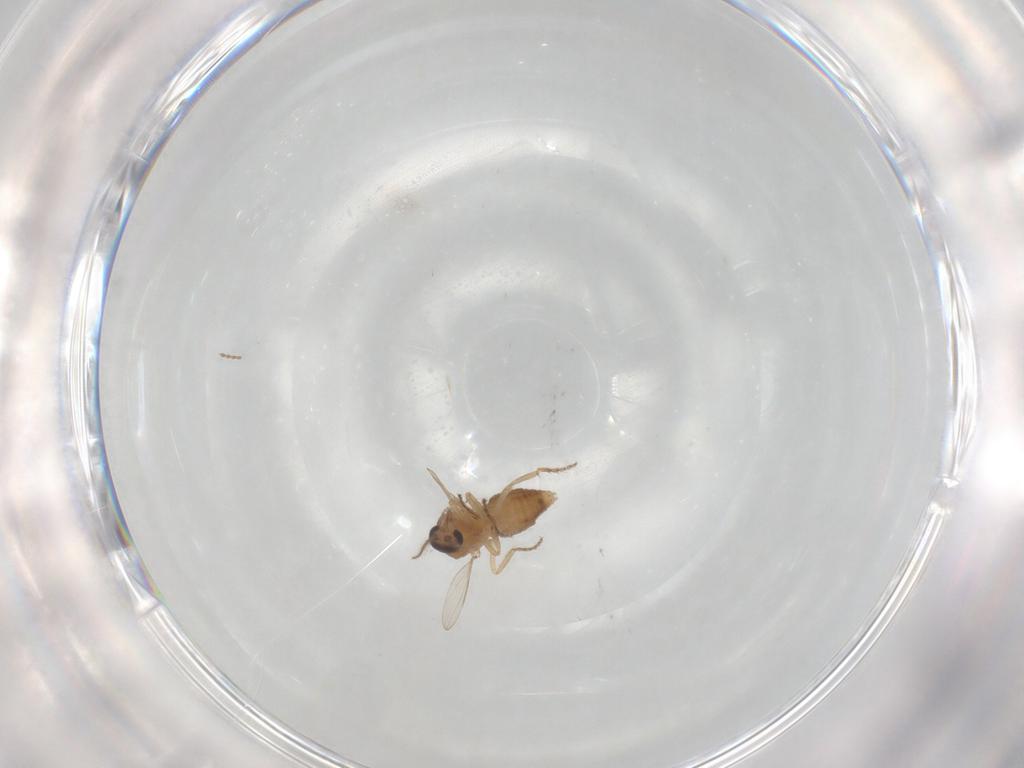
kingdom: Animalia
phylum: Arthropoda
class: Insecta
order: Diptera
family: Ceratopogonidae
